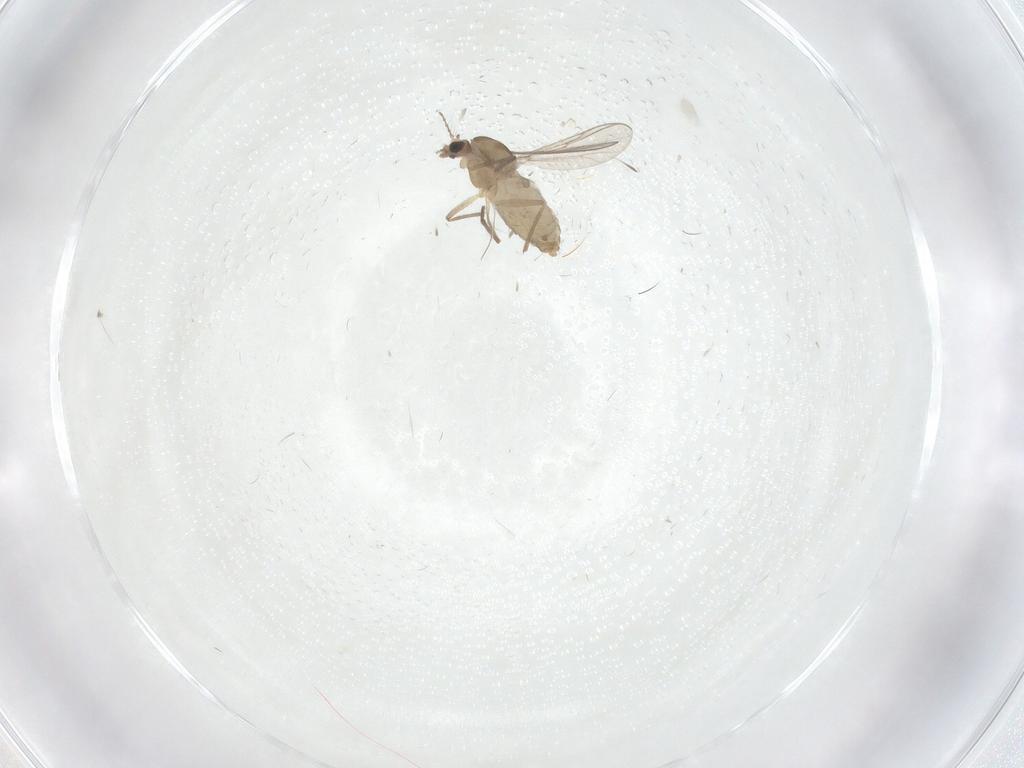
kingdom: Animalia
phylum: Arthropoda
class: Insecta
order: Diptera
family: Chironomidae
